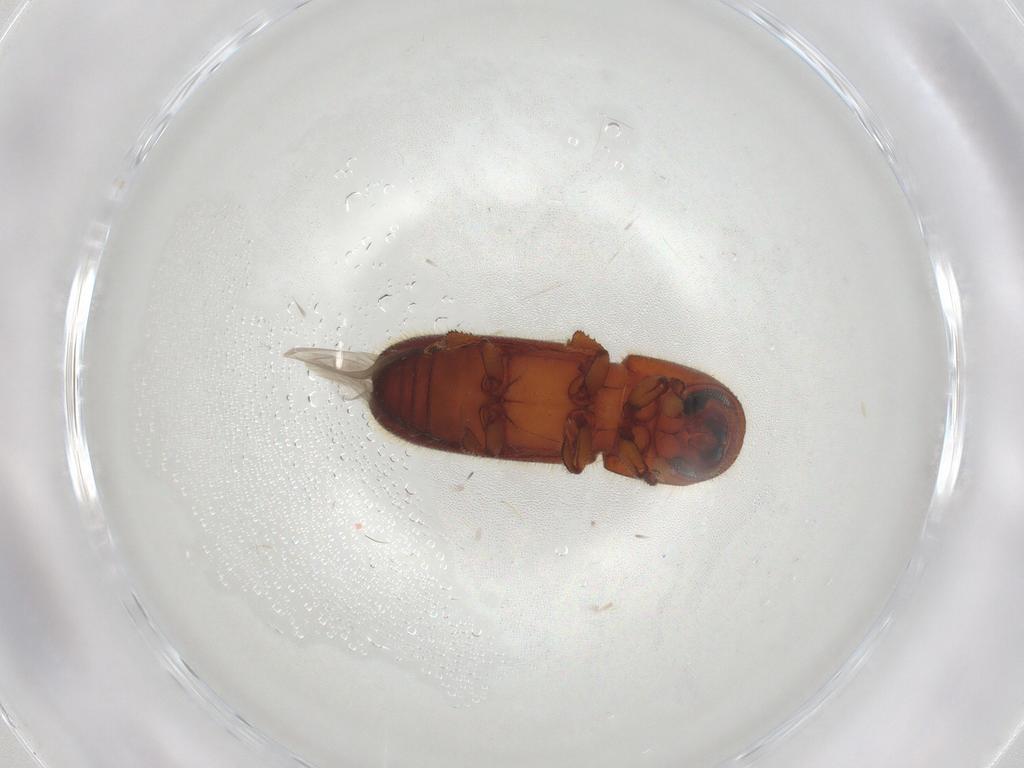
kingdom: Animalia
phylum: Arthropoda
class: Insecta
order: Coleoptera
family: Curculionidae
